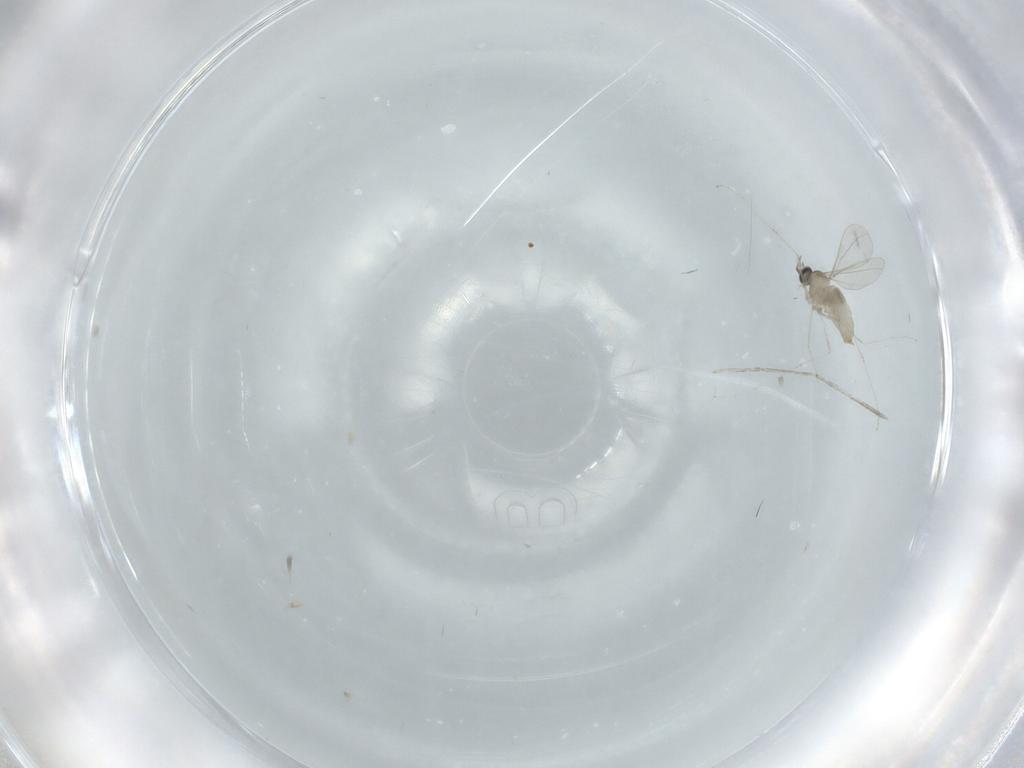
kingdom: Animalia
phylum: Arthropoda
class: Insecta
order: Diptera
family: Cecidomyiidae
